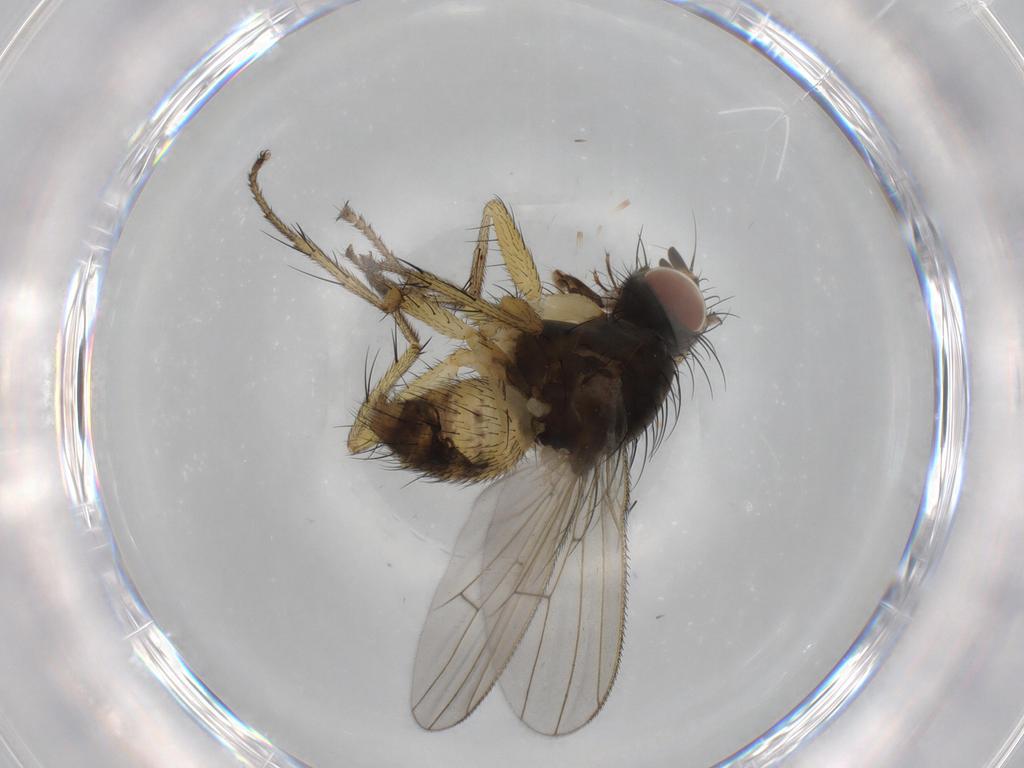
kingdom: Animalia
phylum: Arthropoda
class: Insecta
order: Diptera
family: Muscidae
